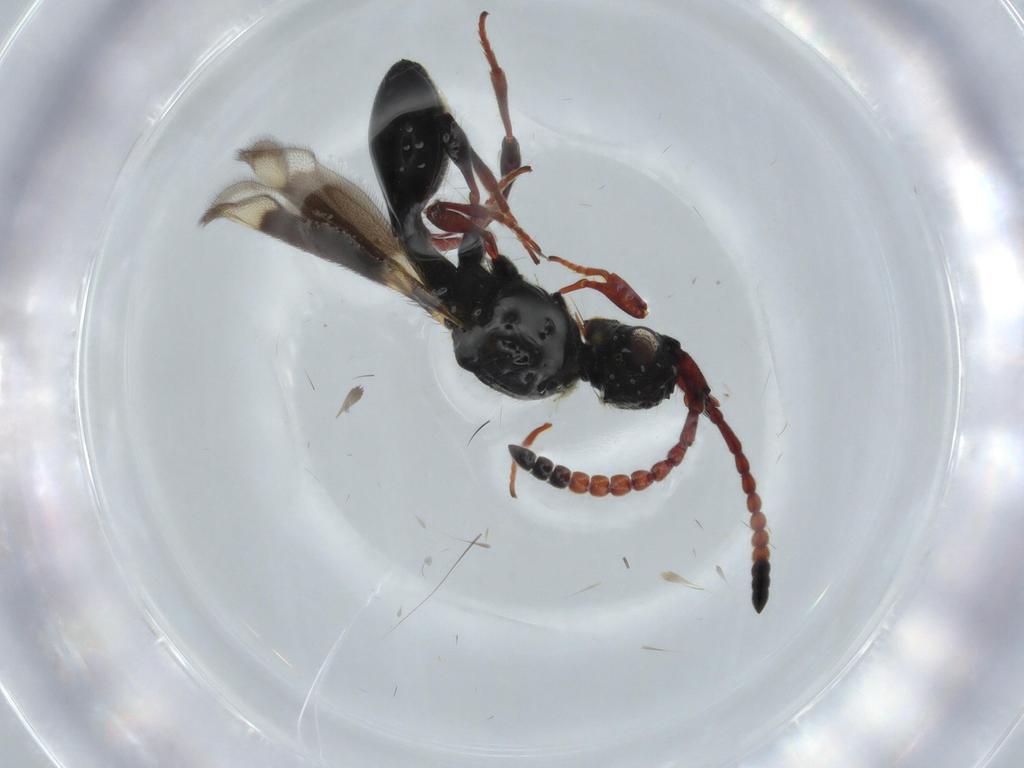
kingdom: Animalia
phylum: Arthropoda
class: Insecta
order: Hymenoptera
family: Diapriidae
